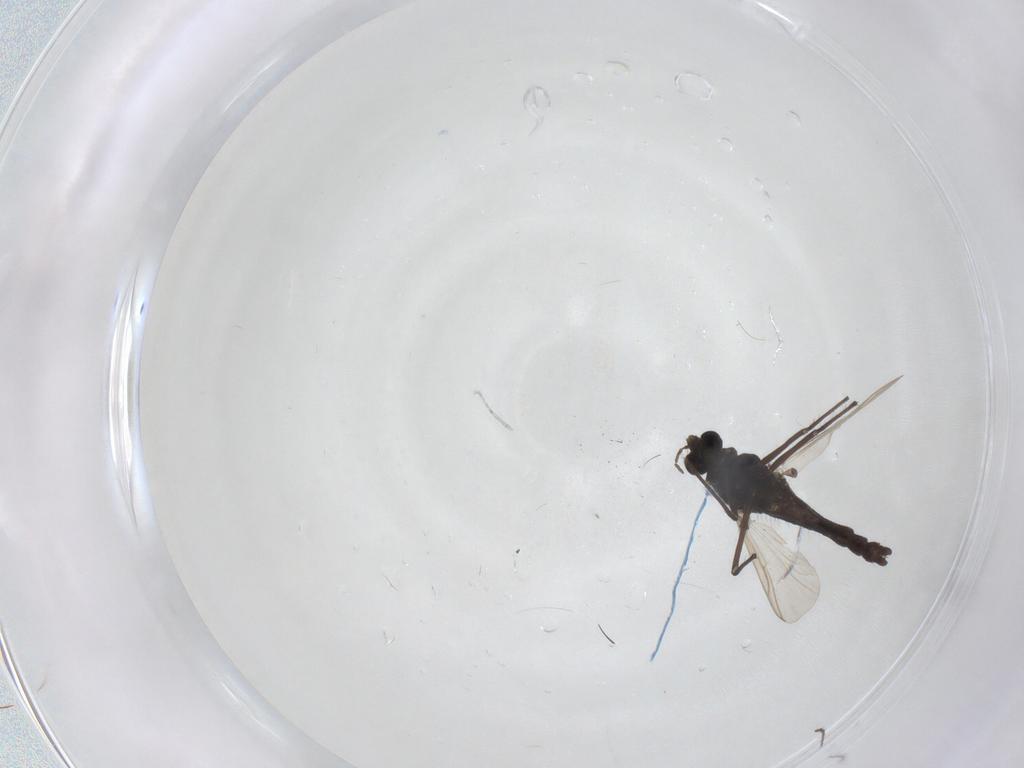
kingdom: Animalia
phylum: Arthropoda
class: Insecta
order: Diptera
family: Chironomidae
